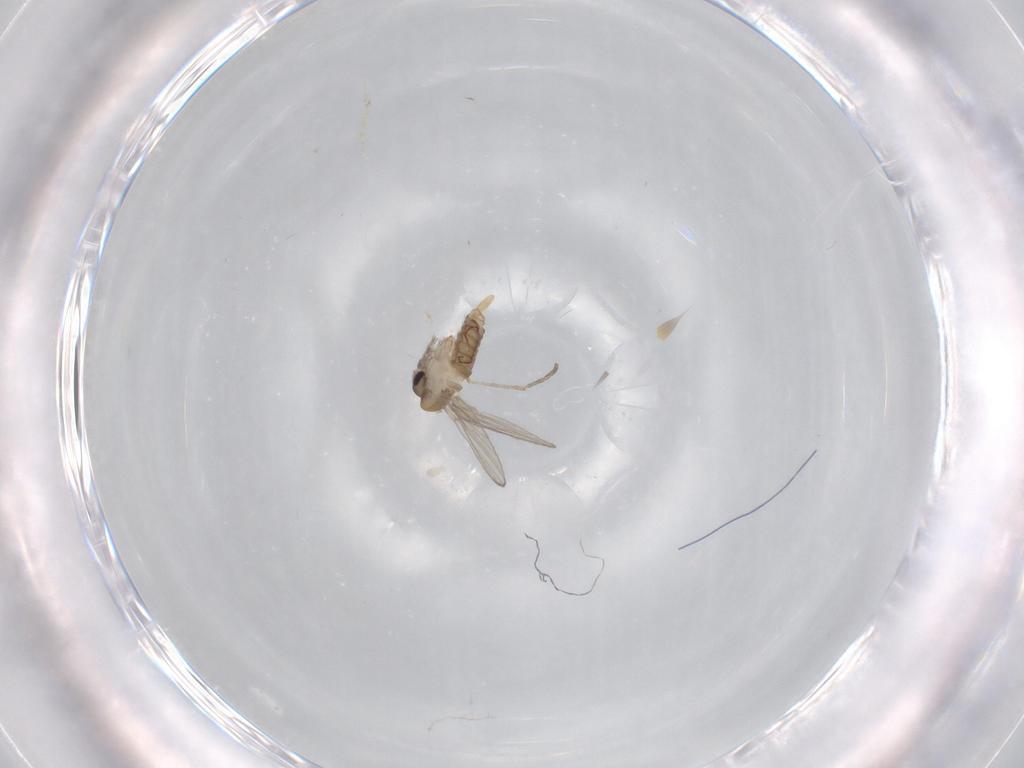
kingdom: Animalia
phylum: Arthropoda
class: Insecta
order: Diptera
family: Psychodidae
